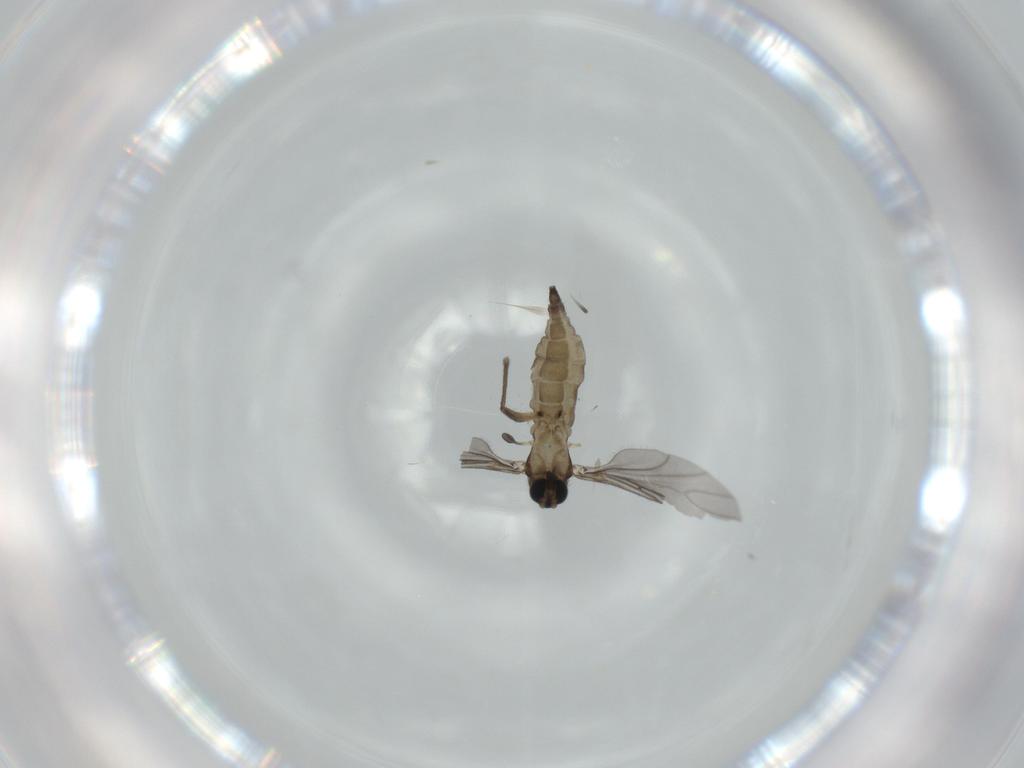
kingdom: Animalia
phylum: Arthropoda
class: Insecta
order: Diptera
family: Sciaridae
